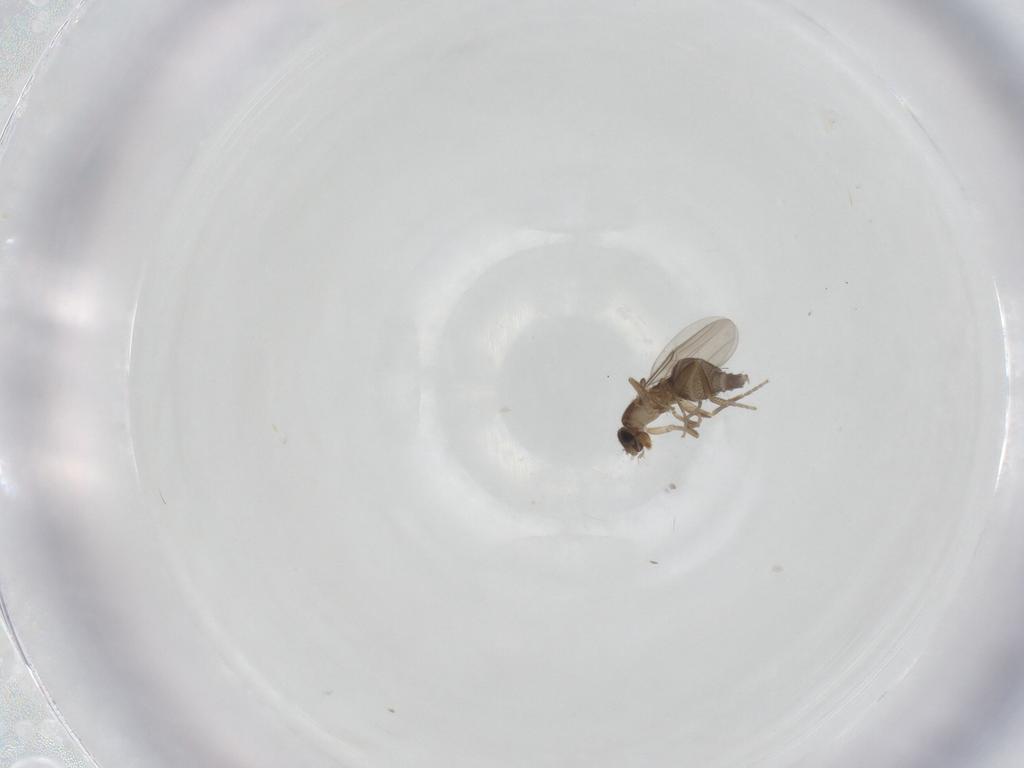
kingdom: Animalia
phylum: Arthropoda
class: Insecta
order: Diptera
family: Phoridae
